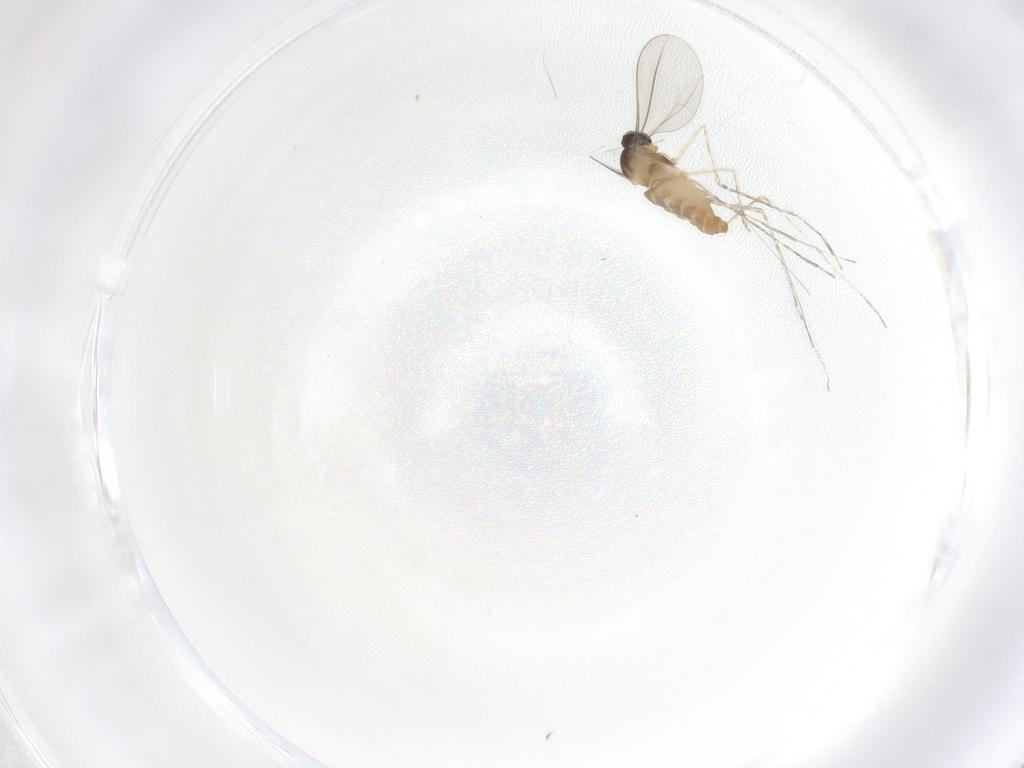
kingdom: Animalia
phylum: Arthropoda
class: Insecta
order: Diptera
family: Cecidomyiidae
